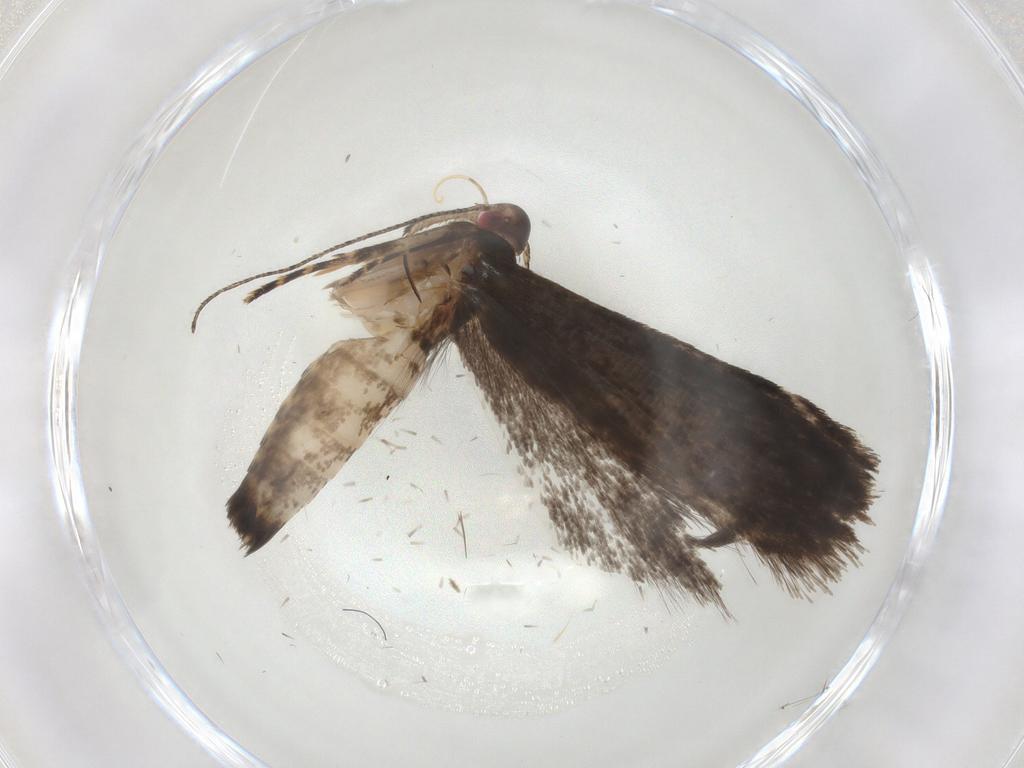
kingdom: Animalia
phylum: Arthropoda
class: Insecta
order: Lepidoptera
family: Gelechiidae
